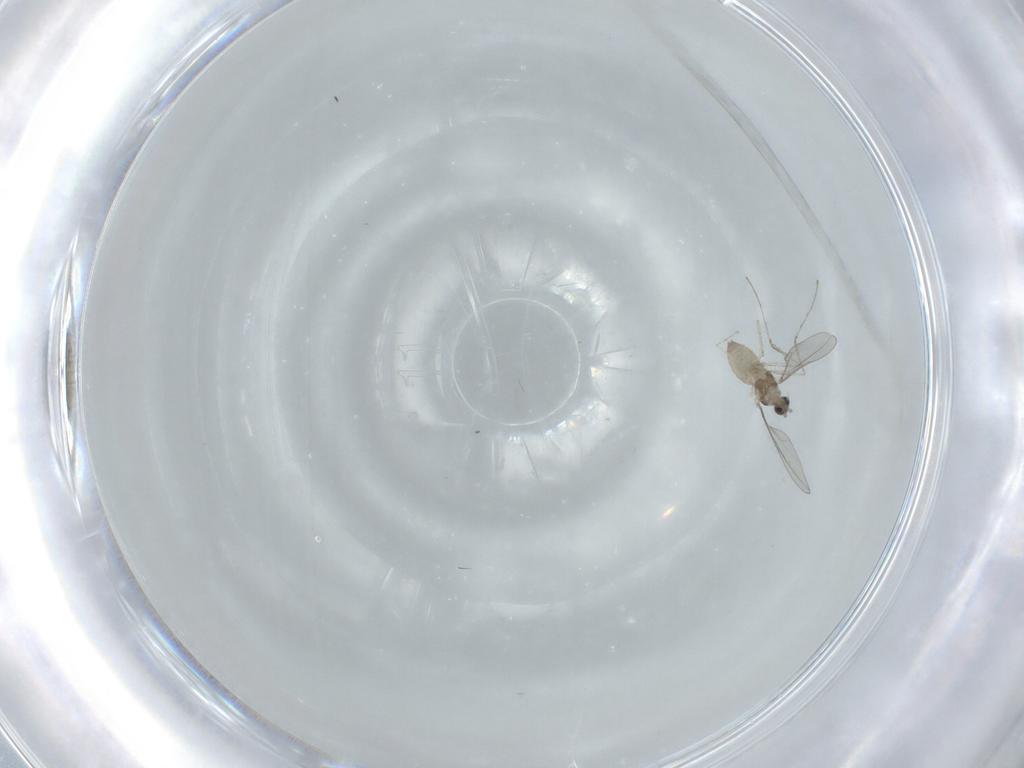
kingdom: Animalia
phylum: Arthropoda
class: Insecta
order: Diptera
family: Cecidomyiidae
